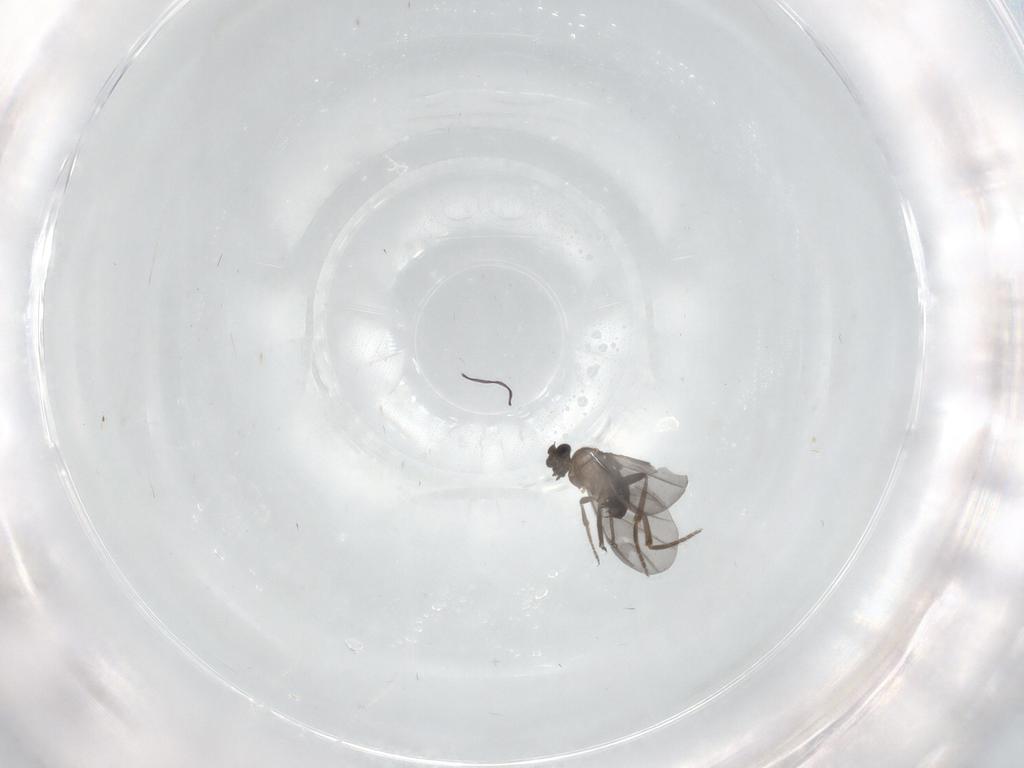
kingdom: Animalia
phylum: Arthropoda
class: Insecta
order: Diptera
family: Phoridae
